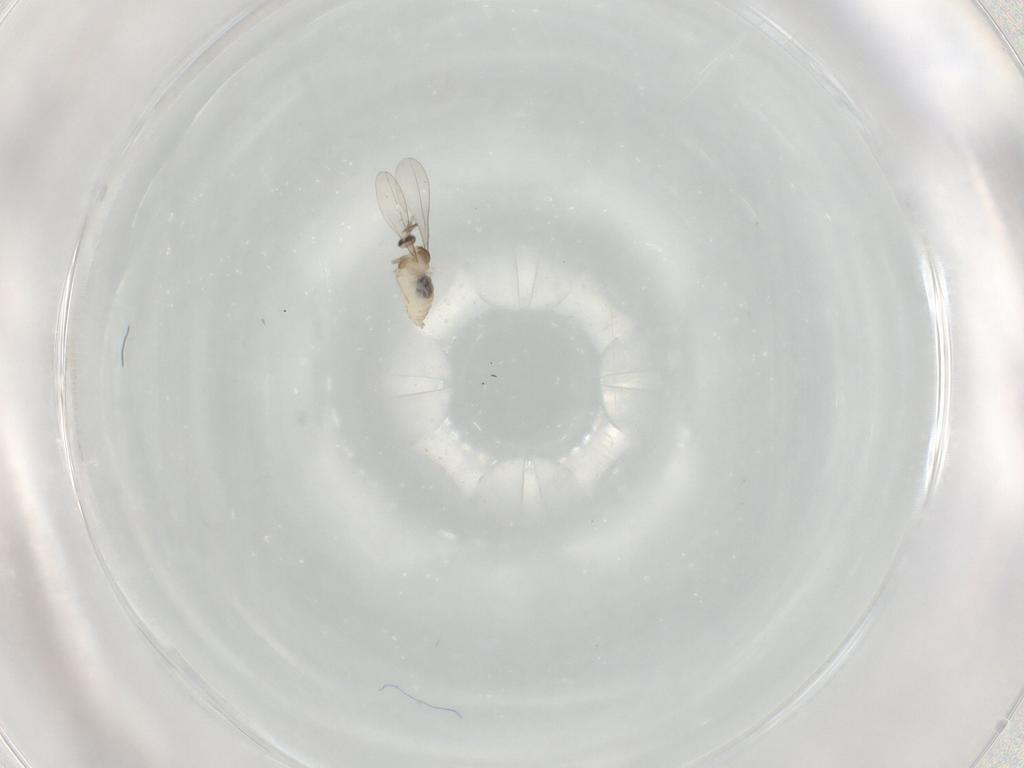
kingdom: Animalia
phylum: Arthropoda
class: Insecta
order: Diptera
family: Cecidomyiidae
